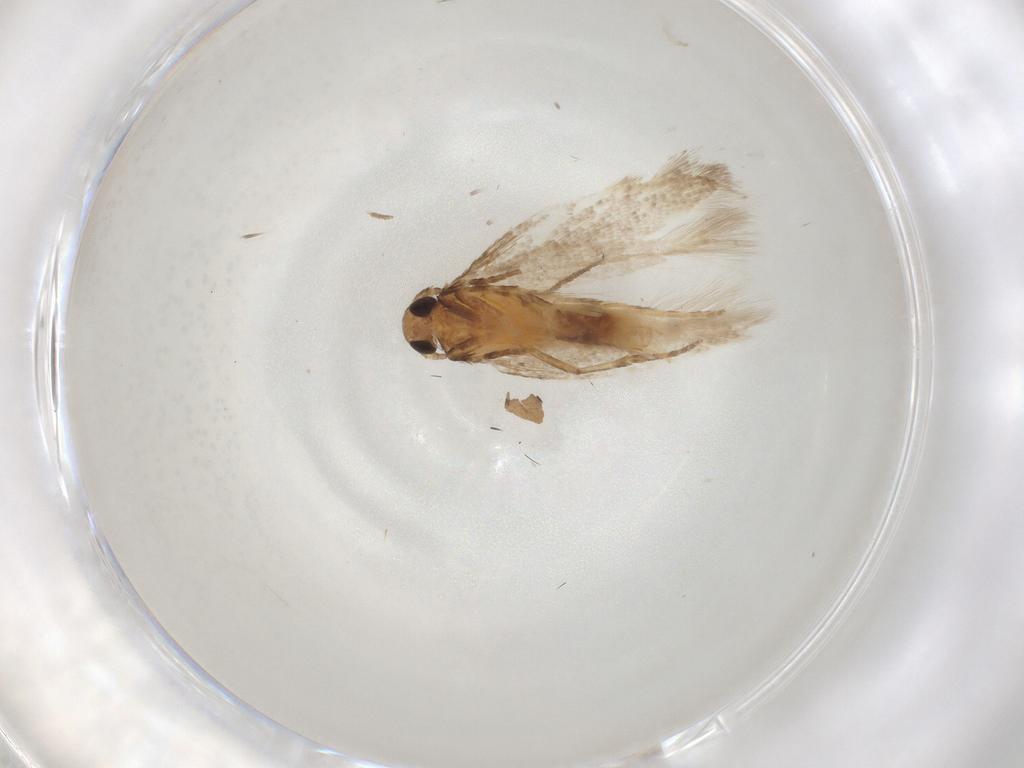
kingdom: Animalia
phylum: Arthropoda
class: Insecta
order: Lepidoptera
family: Gelechiidae
